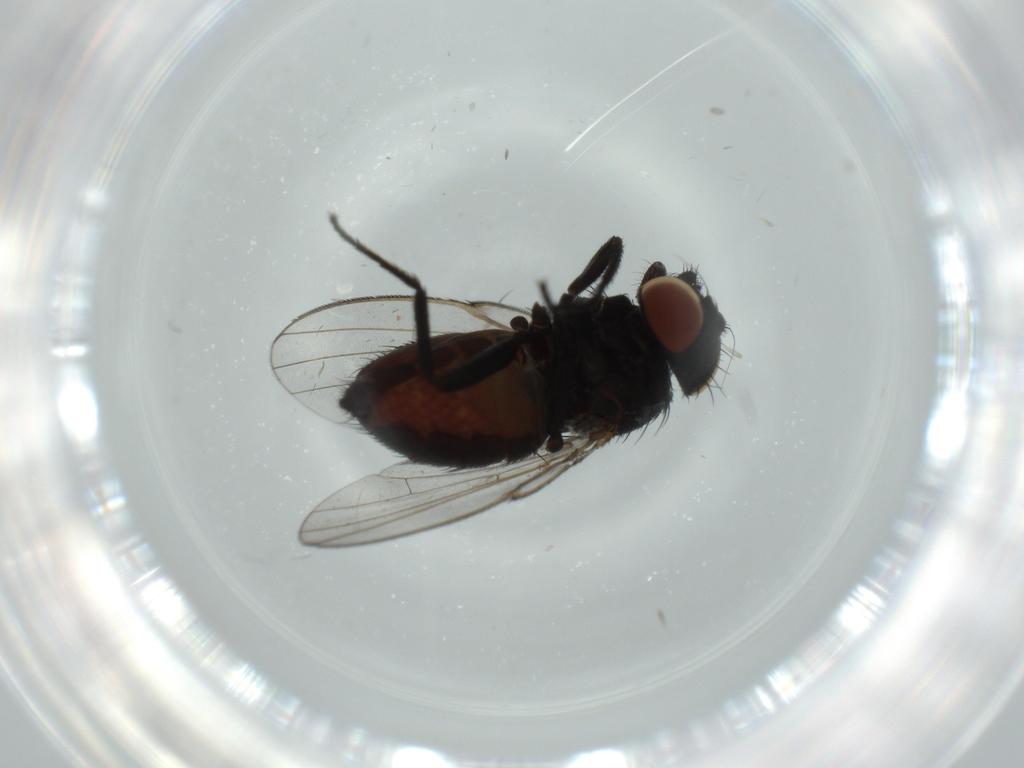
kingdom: Animalia
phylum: Arthropoda
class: Insecta
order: Diptera
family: Milichiidae
